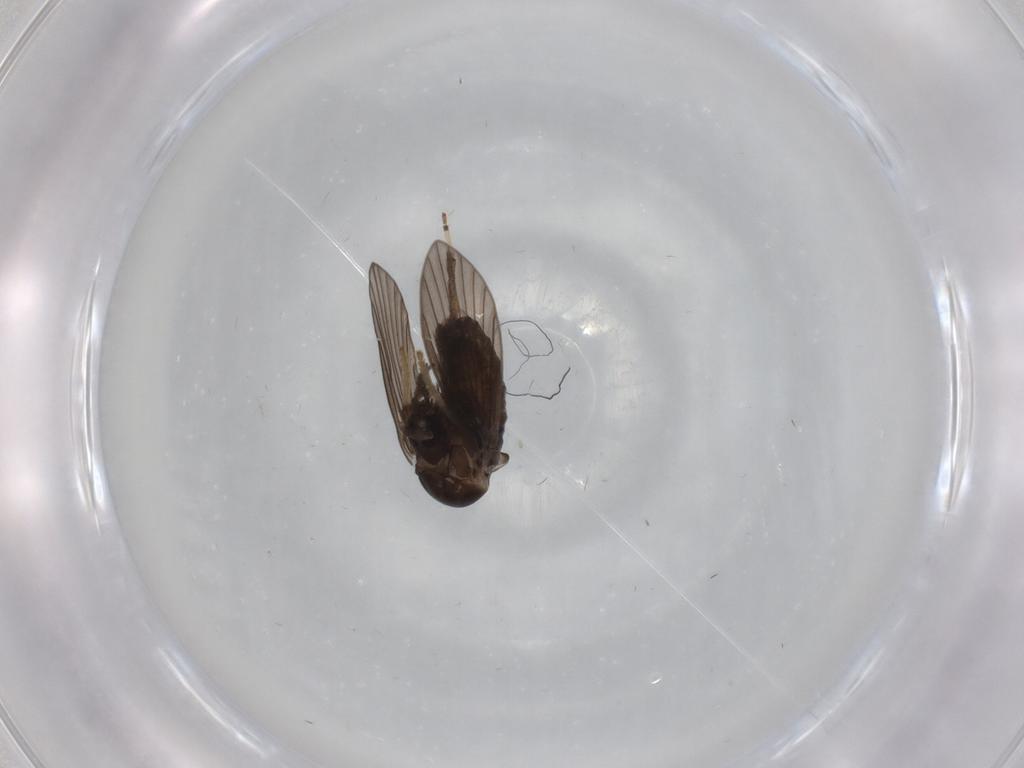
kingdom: Animalia
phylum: Arthropoda
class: Insecta
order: Diptera
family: Psychodidae
